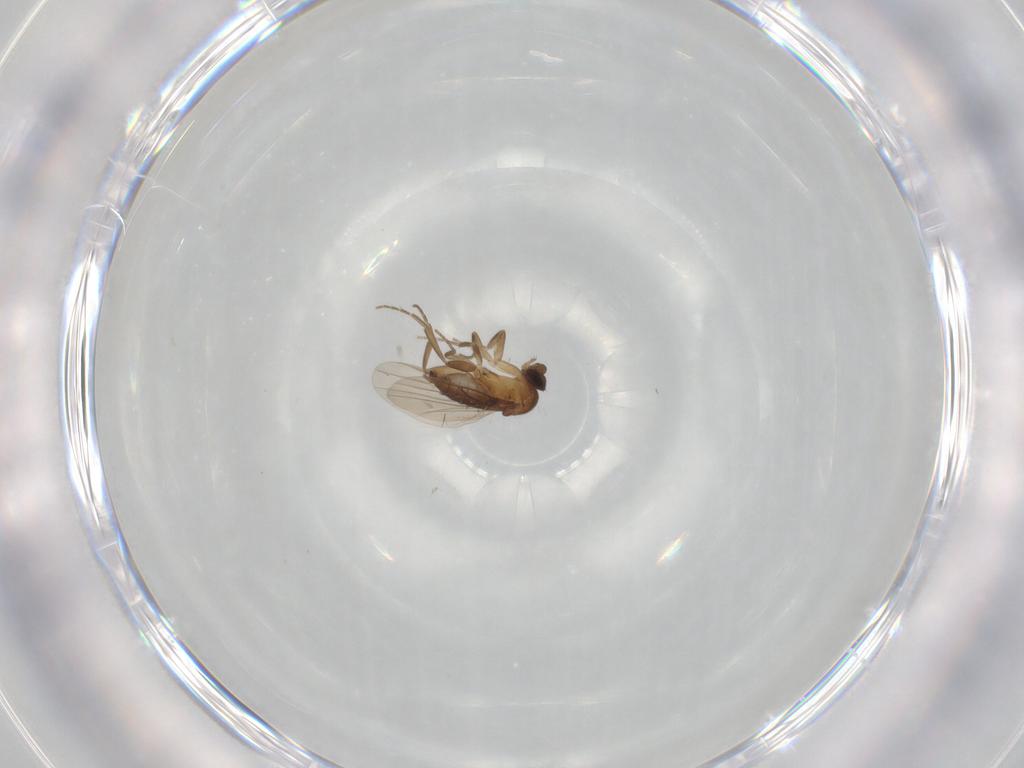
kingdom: Animalia
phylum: Arthropoda
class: Insecta
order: Diptera
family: Phoridae
